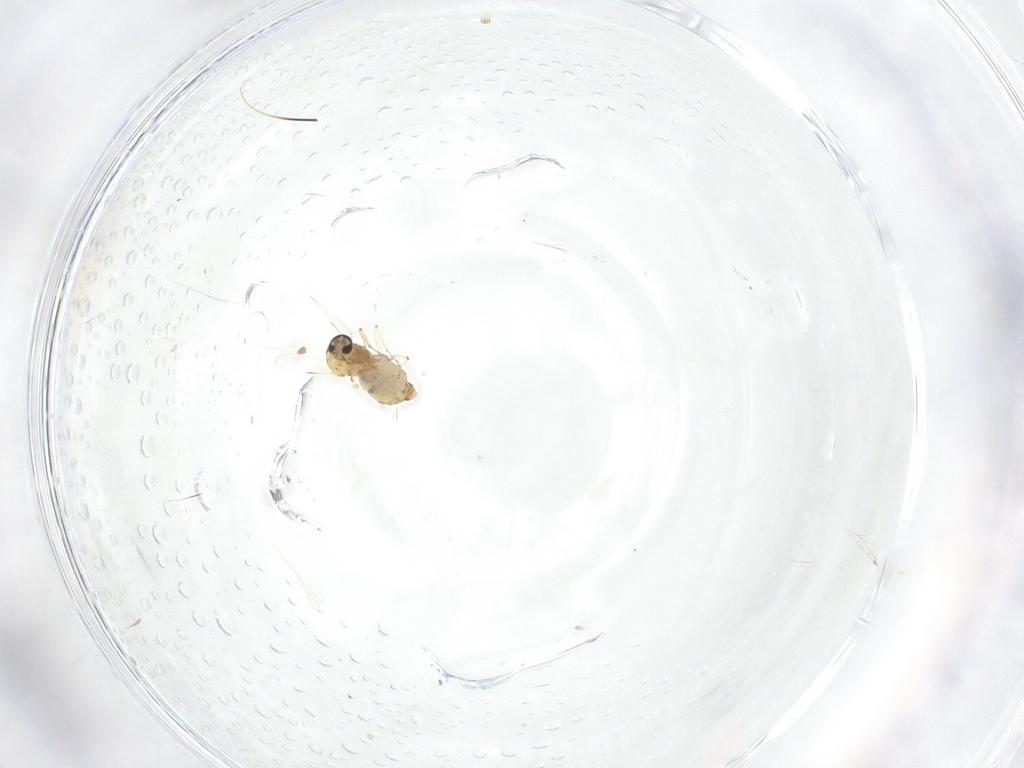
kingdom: Animalia
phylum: Arthropoda
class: Insecta
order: Diptera
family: Ceratopogonidae
